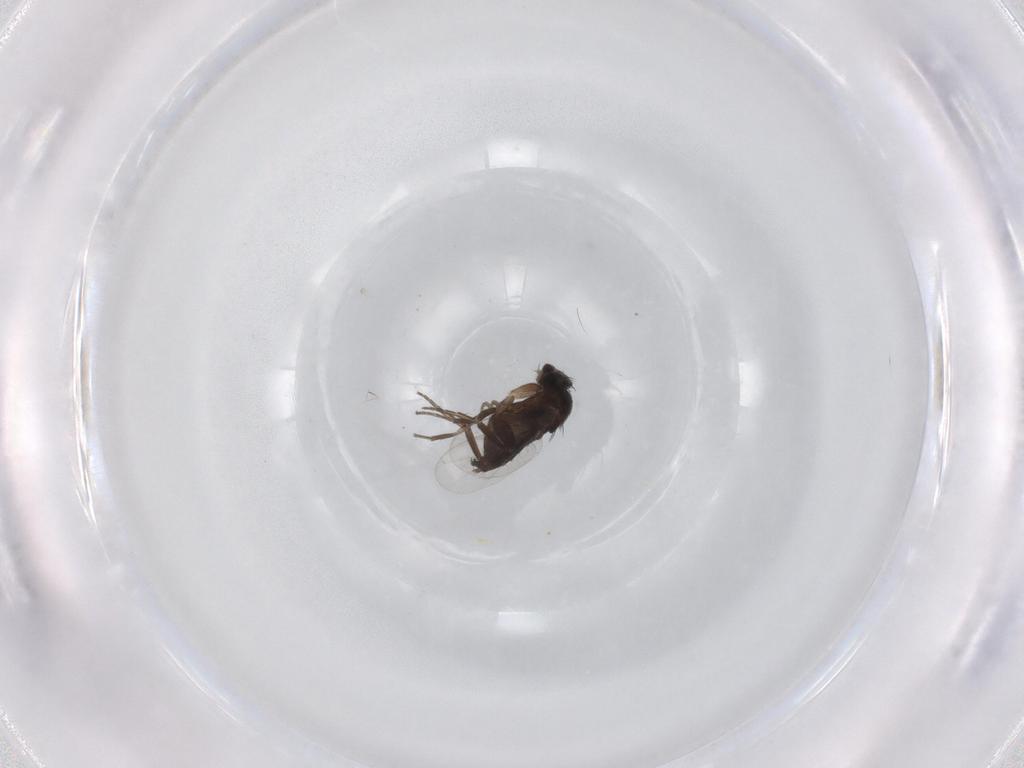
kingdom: Animalia
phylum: Arthropoda
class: Insecta
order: Diptera
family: Phoridae
